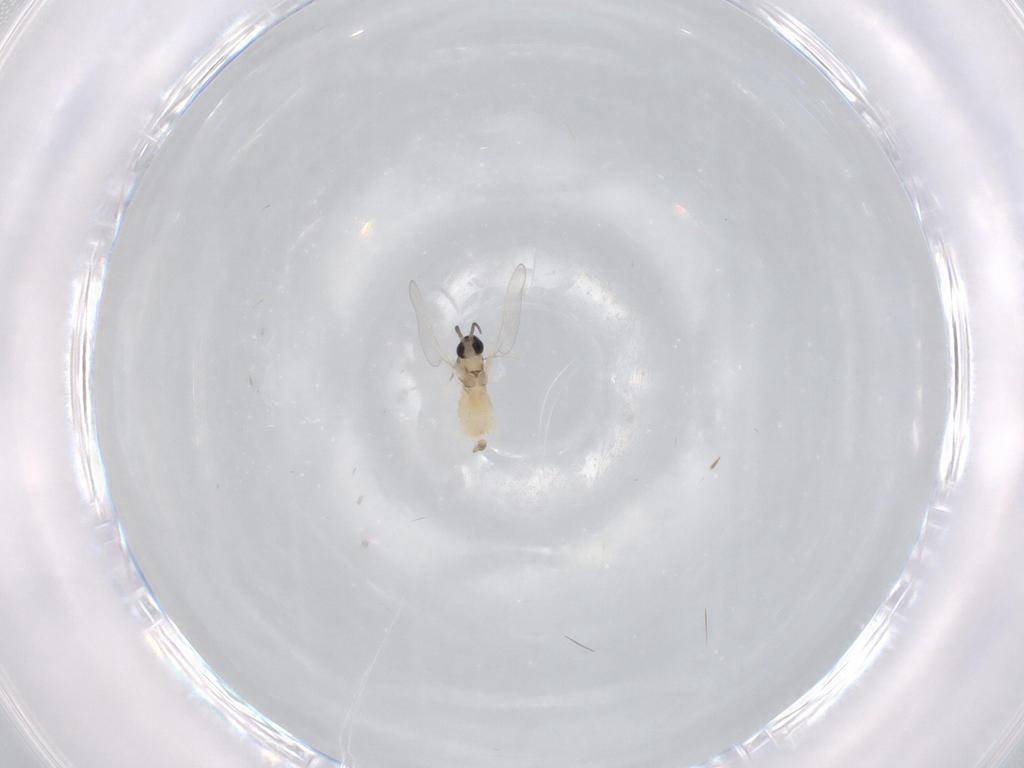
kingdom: Animalia
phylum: Arthropoda
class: Insecta
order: Diptera
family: Cecidomyiidae
